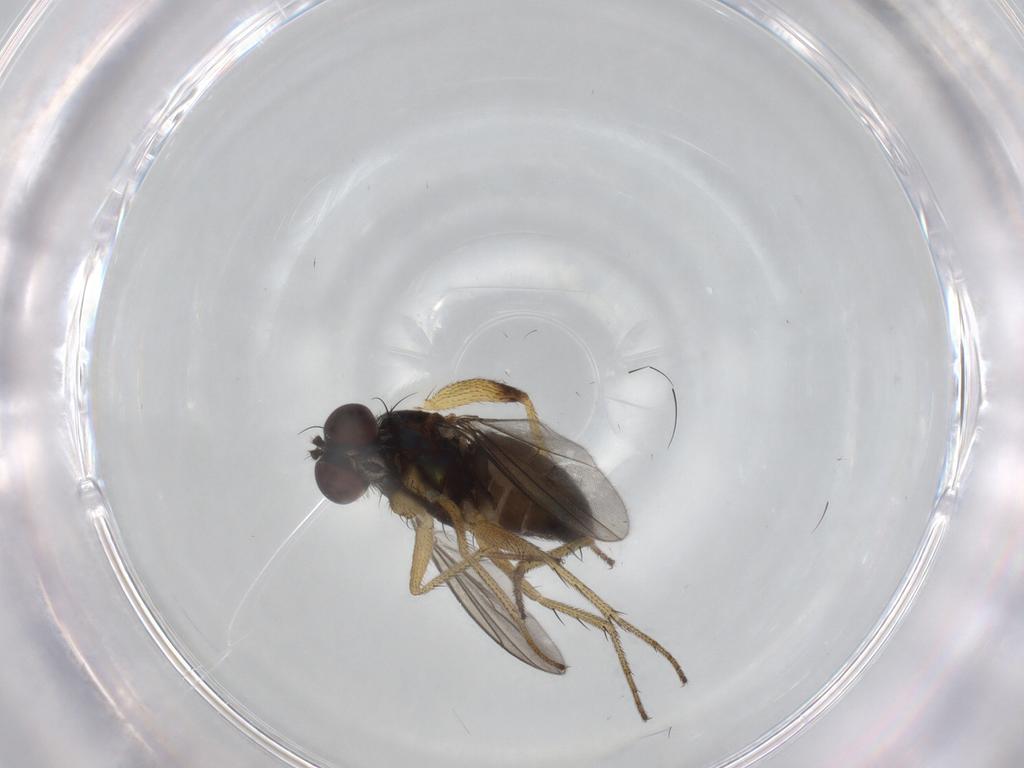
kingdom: Animalia
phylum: Arthropoda
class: Insecta
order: Diptera
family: Dolichopodidae
